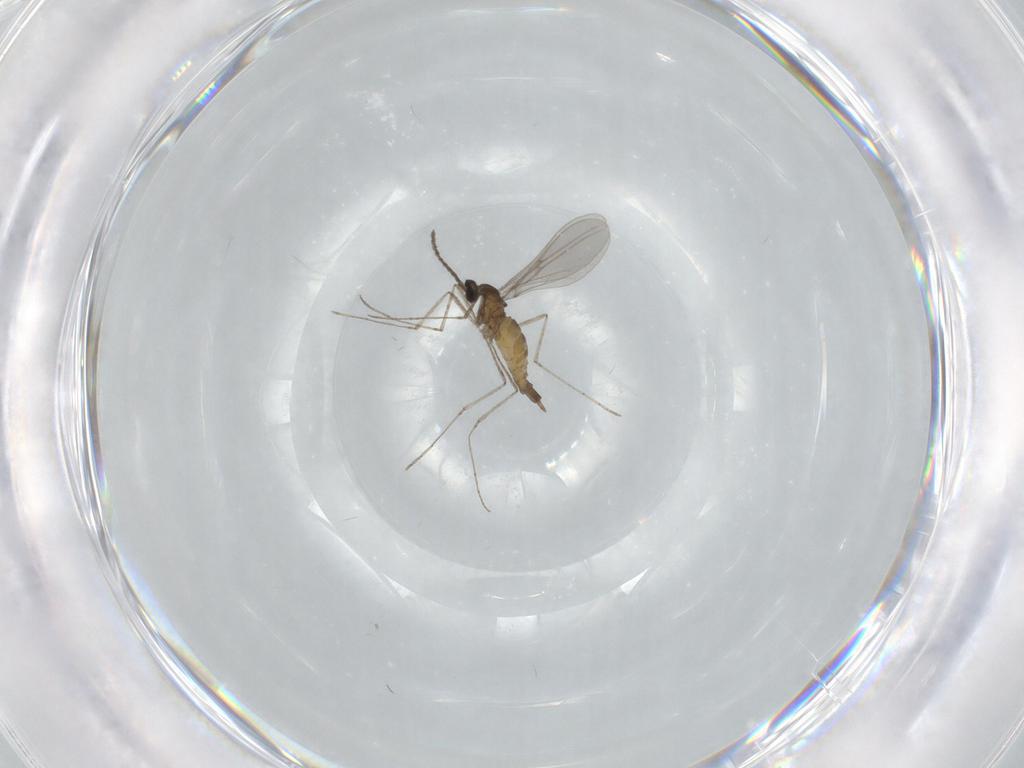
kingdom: Animalia
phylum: Arthropoda
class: Insecta
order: Diptera
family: Cecidomyiidae
